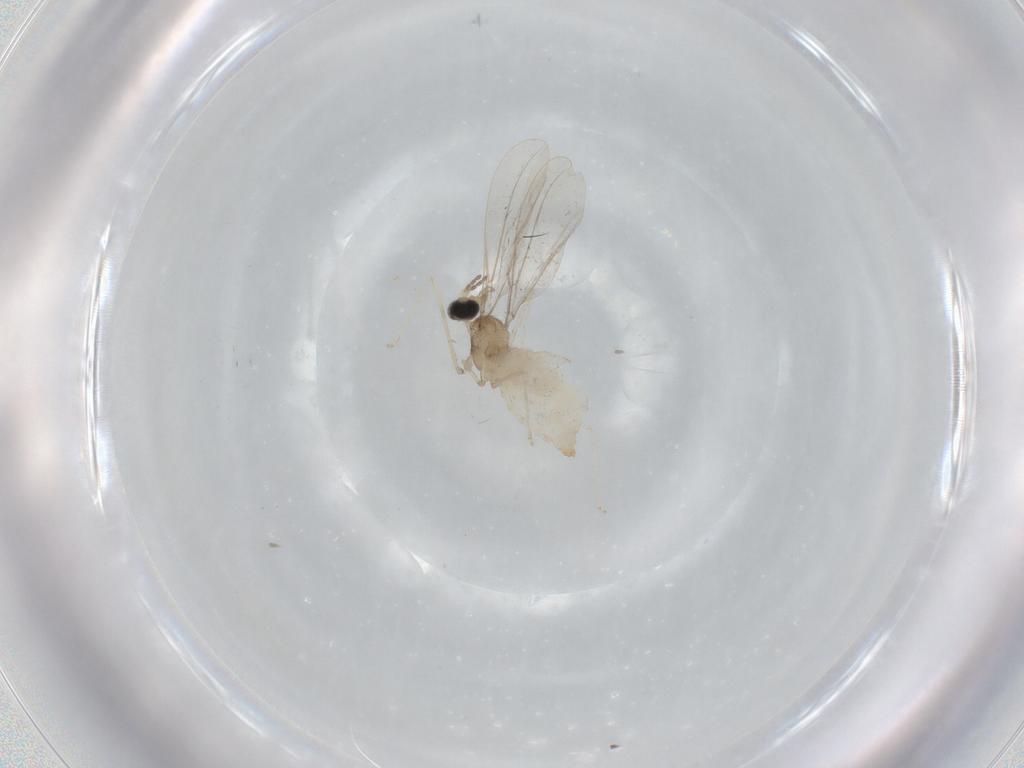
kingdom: Animalia
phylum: Arthropoda
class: Insecta
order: Diptera
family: Cecidomyiidae
